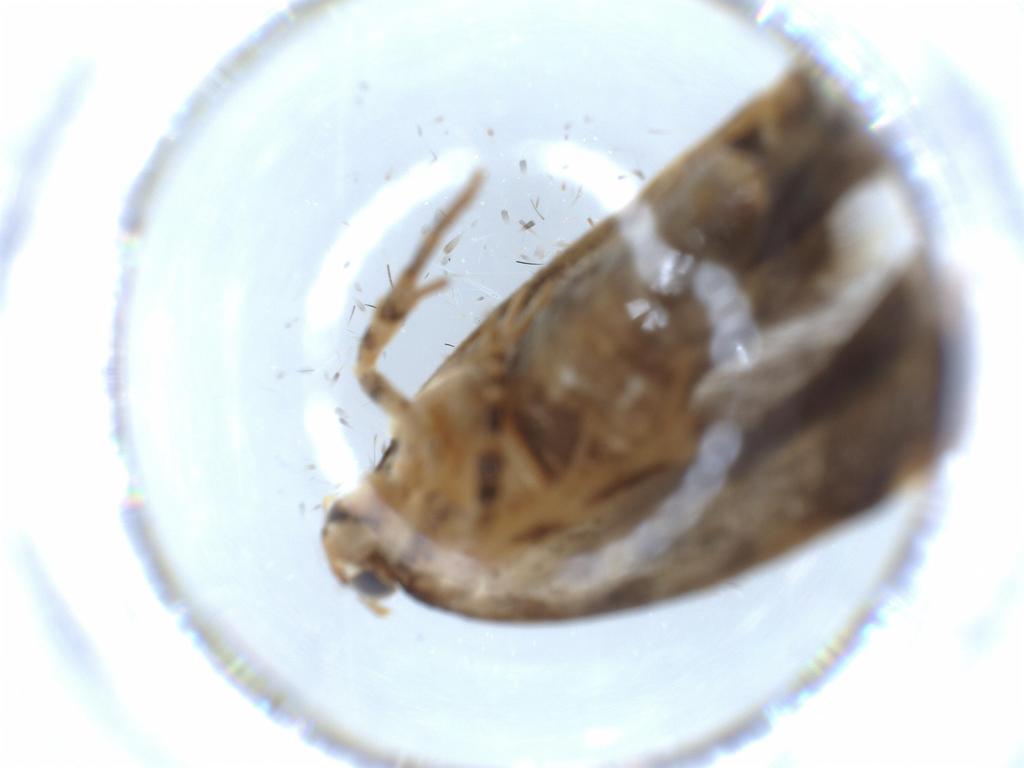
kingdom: Animalia
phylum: Arthropoda
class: Insecta
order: Lepidoptera
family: Gelechiidae
